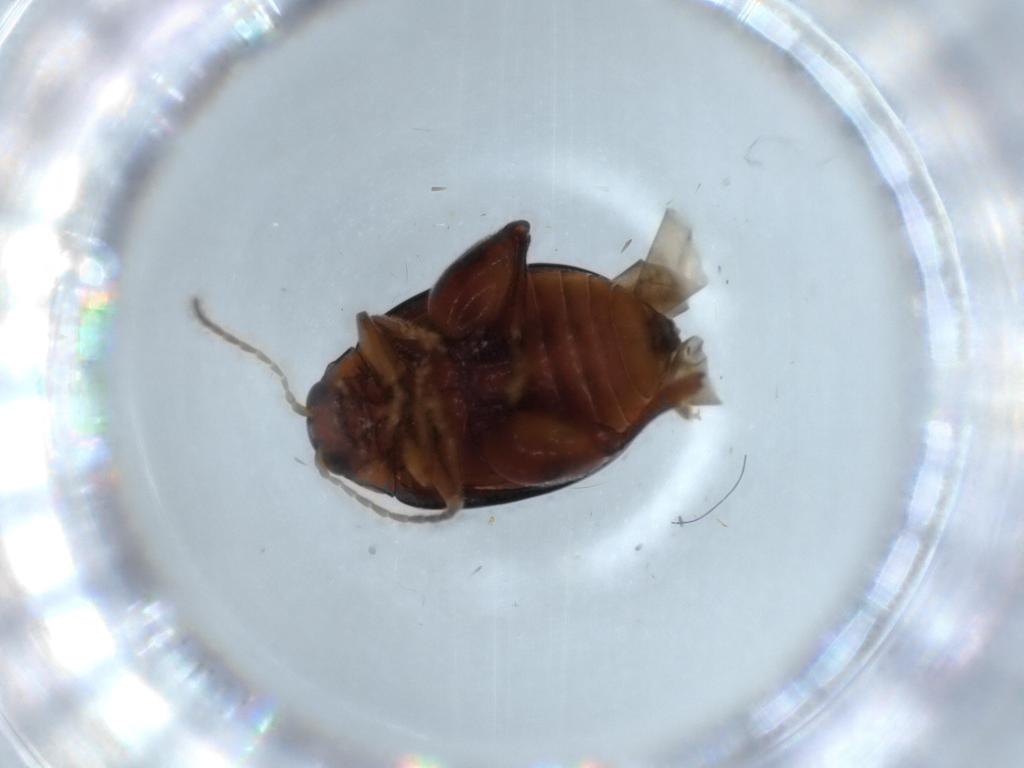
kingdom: Animalia
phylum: Arthropoda
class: Insecta
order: Coleoptera
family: Chrysomelidae
